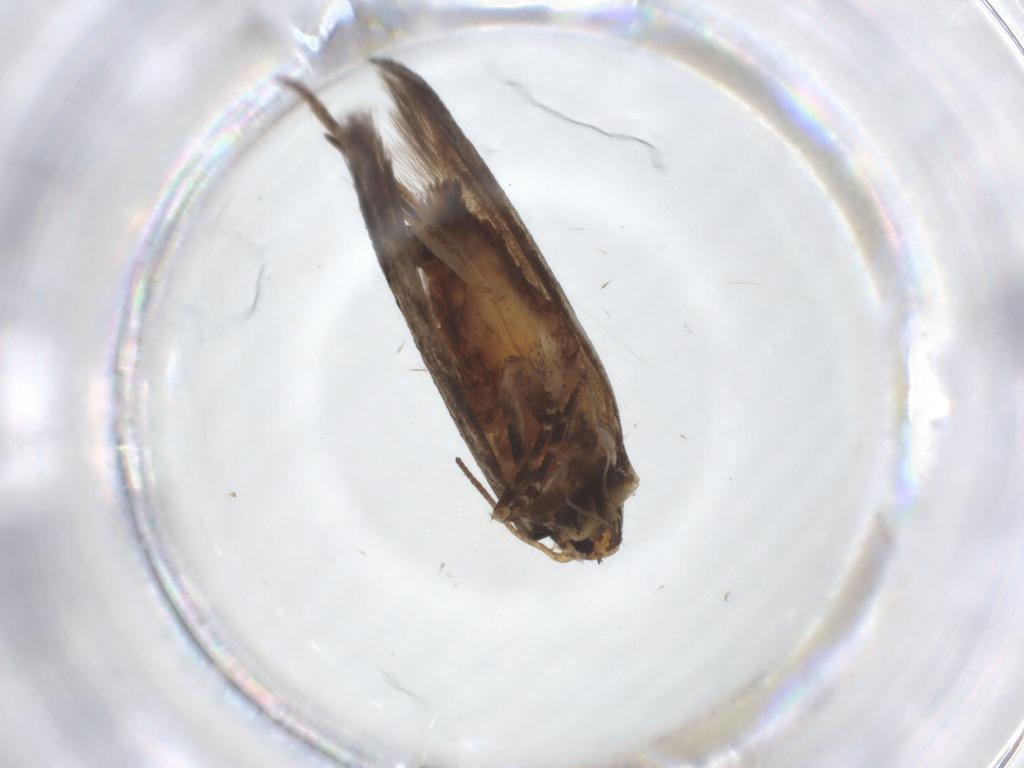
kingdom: Animalia
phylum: Arthropoda
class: Insecta
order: Lepidoptera
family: Gelechiidae
